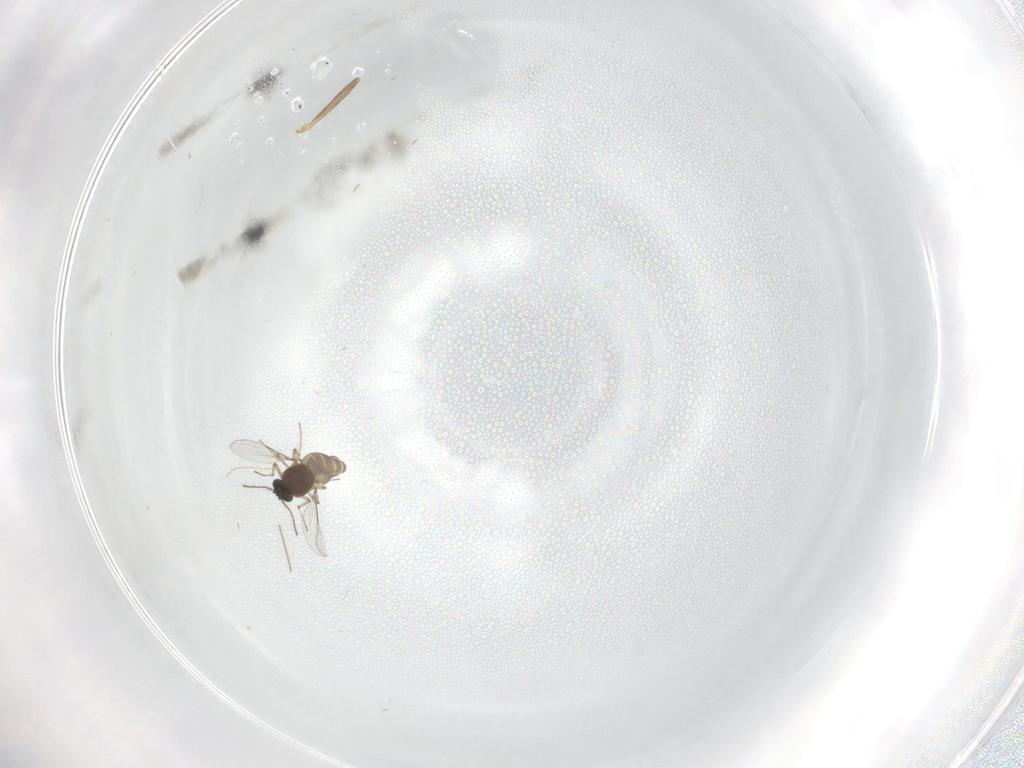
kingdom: Animalia
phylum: Arthropoda
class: Insecta
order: Diptera
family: Ceratopogonidae
